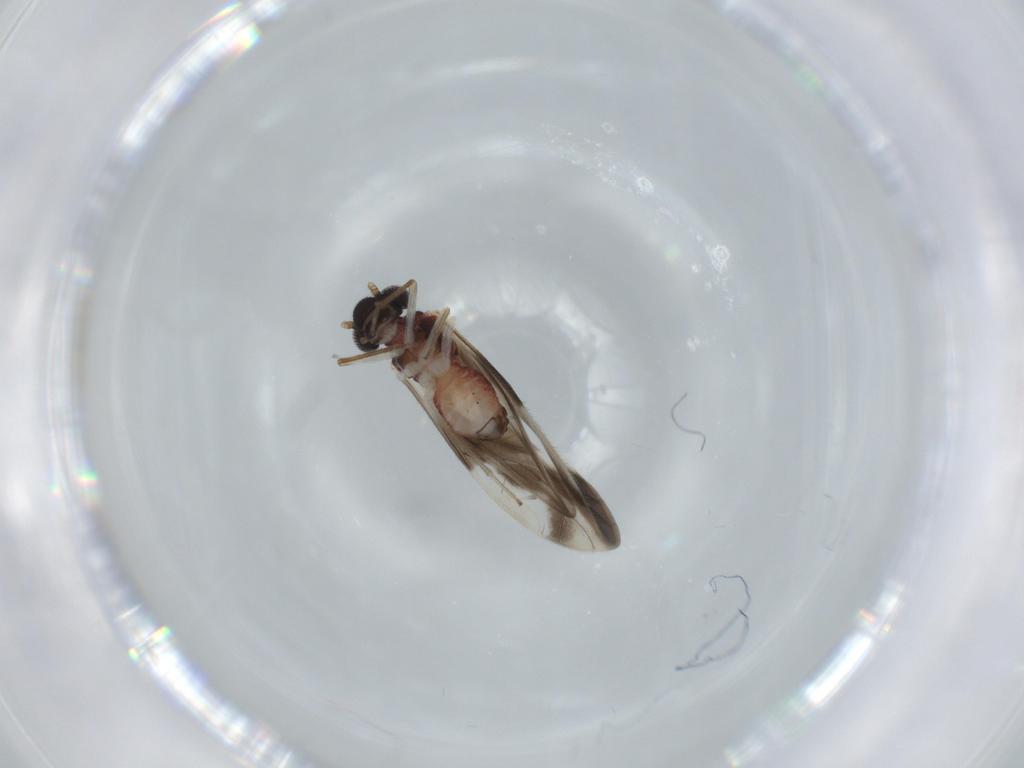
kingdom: Animalia
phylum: Arthropoda
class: Insecta
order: Psocodea
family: Caeciliusidae
